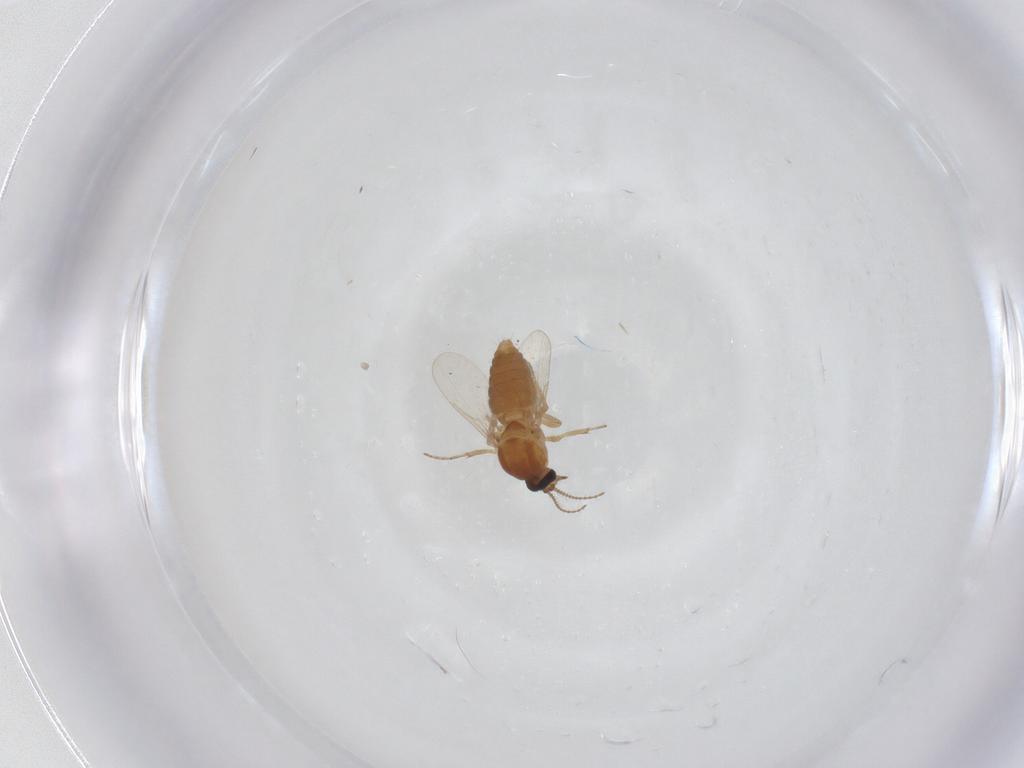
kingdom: Animalia
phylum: Arthropoda
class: Insecta
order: Diptera
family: Ceratopogonidae
